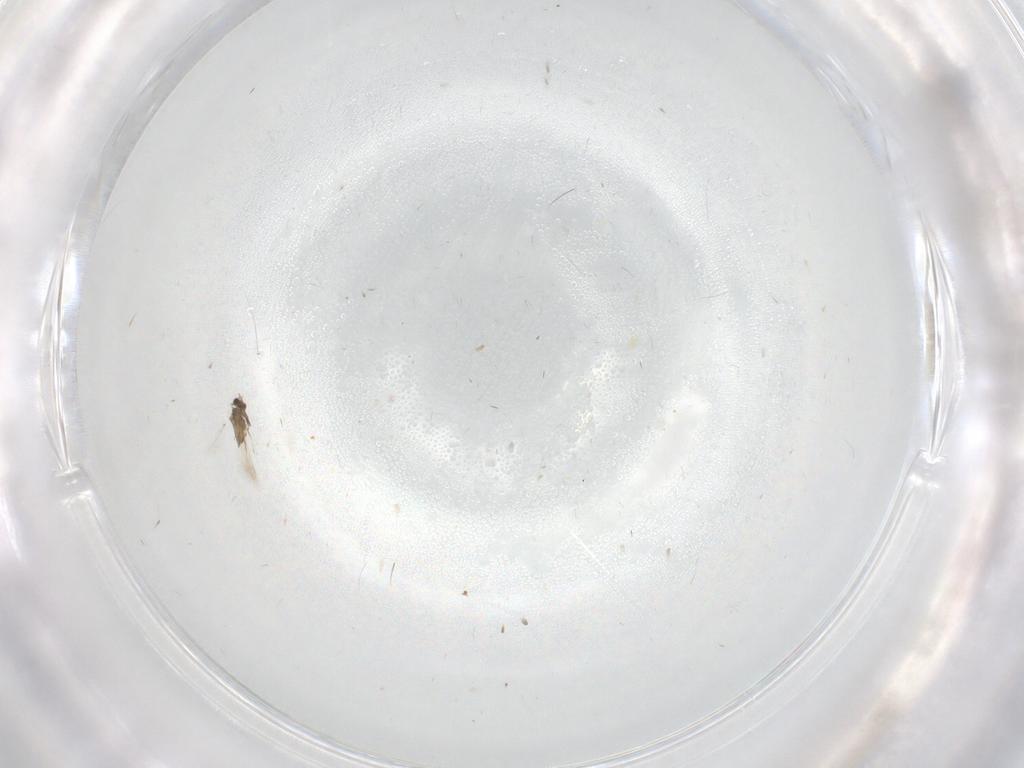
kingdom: Animalia
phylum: Arthropoda
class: Insecta
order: Hymenoptera
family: Mymaridae
